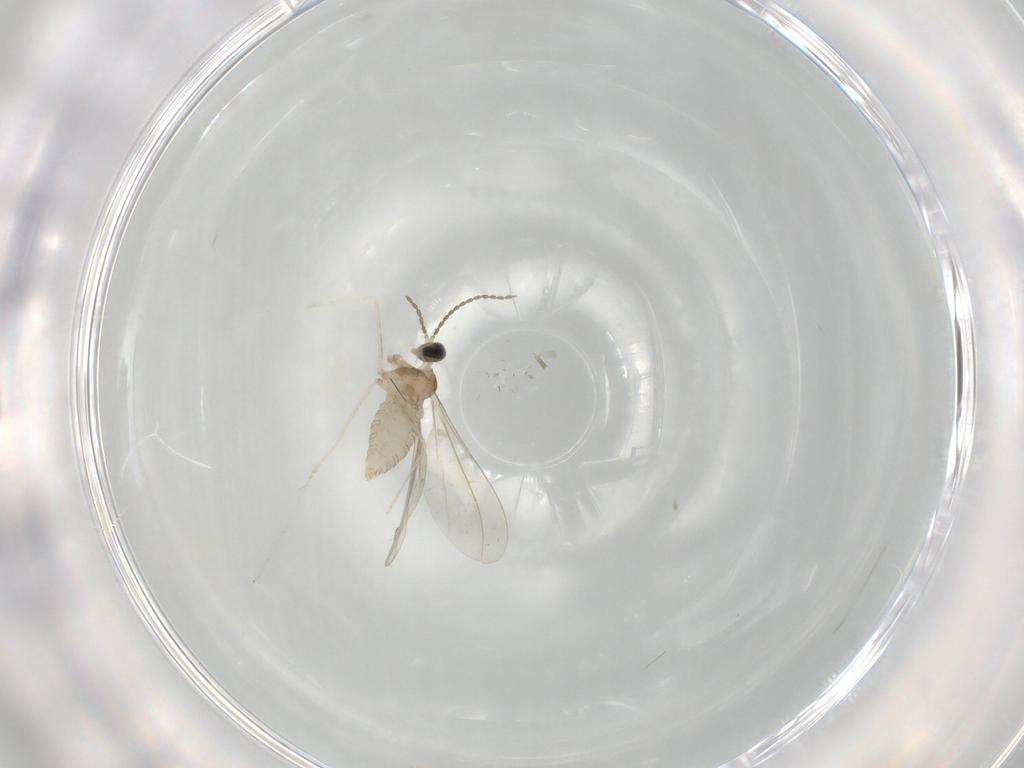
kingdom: Animalia
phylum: Arthropoda
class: Insecta
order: Diptera
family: Cecidomyiidae
